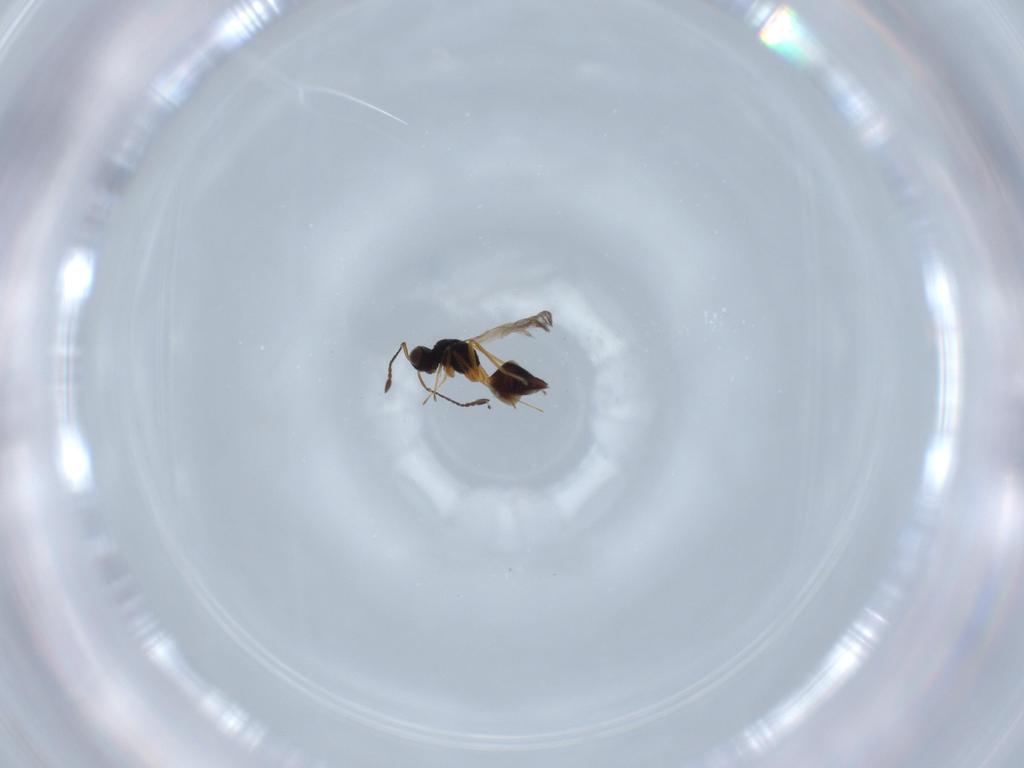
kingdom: Animalia
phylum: Arthropoda
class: Insecta
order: Hymenoptera
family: Mymaridae
